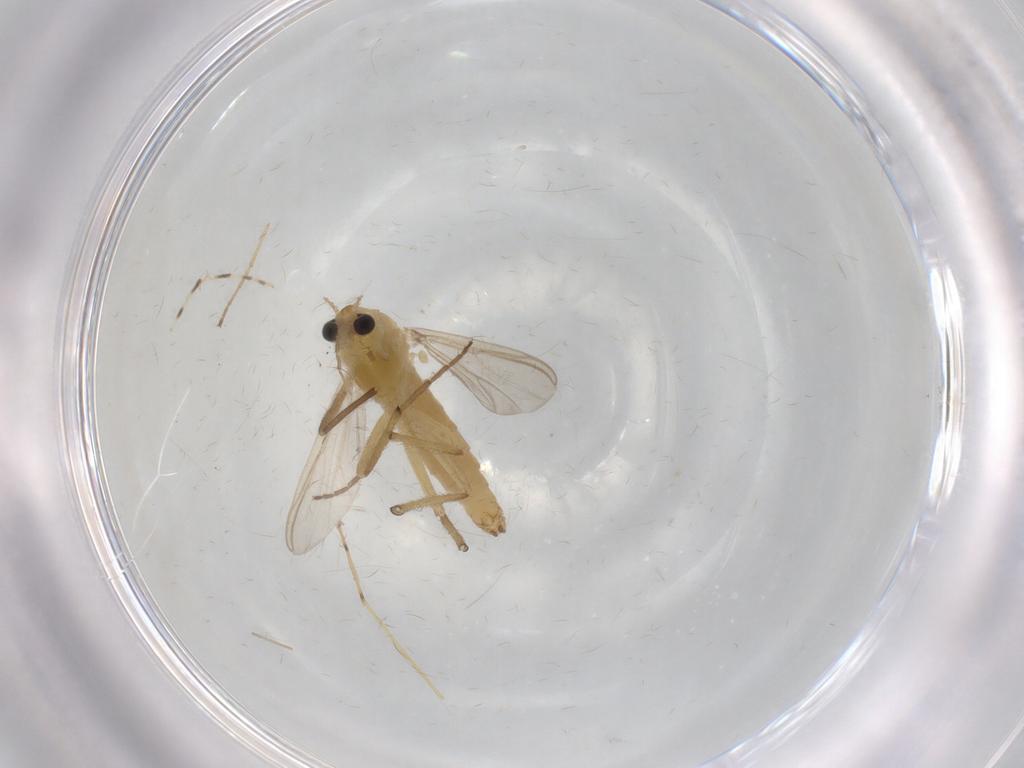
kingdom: Animalia
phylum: Arthropoda
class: Insecta
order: Diptera
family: Chironomidae
